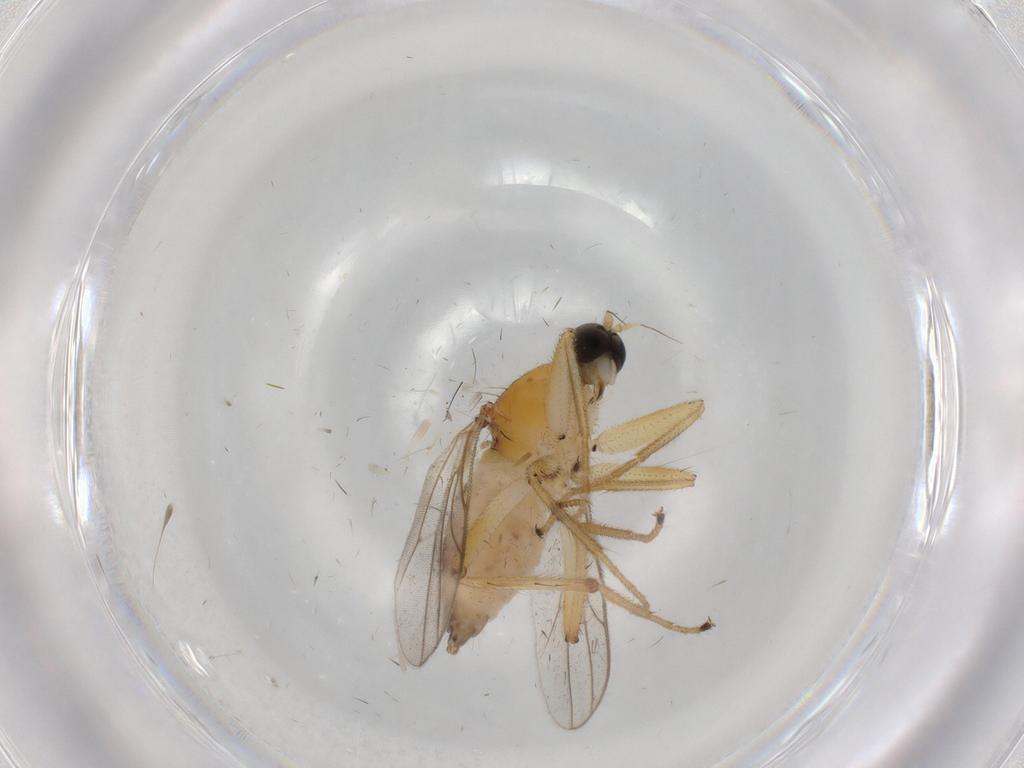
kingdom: Animalia
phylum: Arthropoda
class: Insecta
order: Diptera
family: Hybotidae
